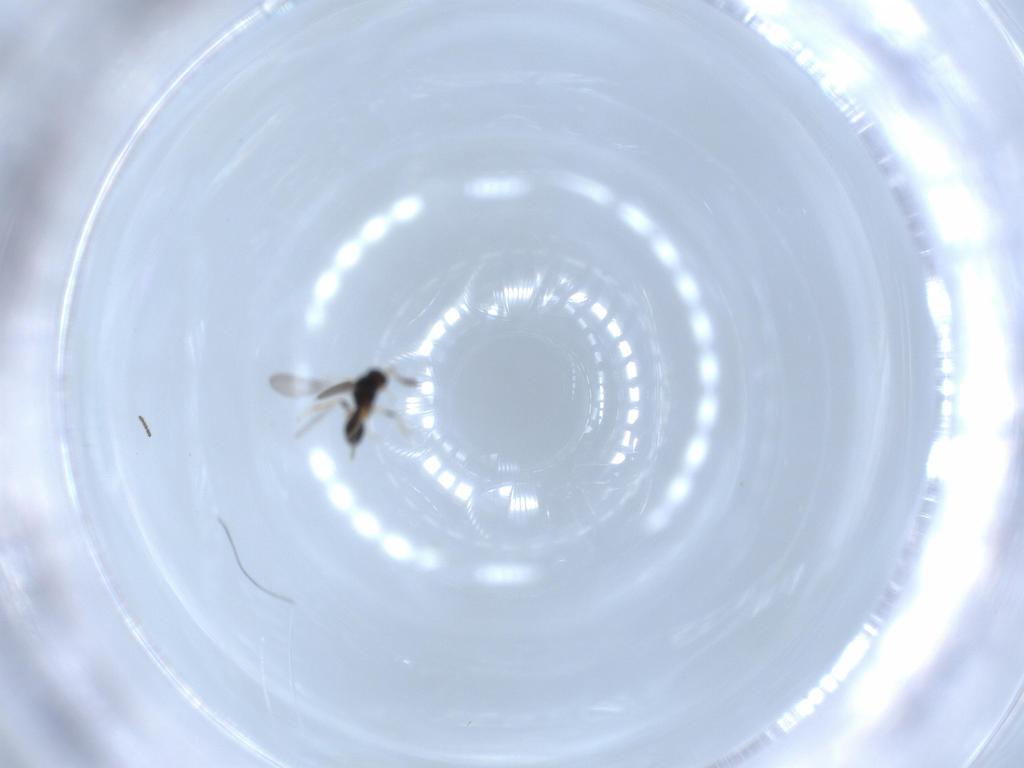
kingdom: Animalia
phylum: Arthropoda
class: Insecta
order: Hymenoptera
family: Platygastridae
